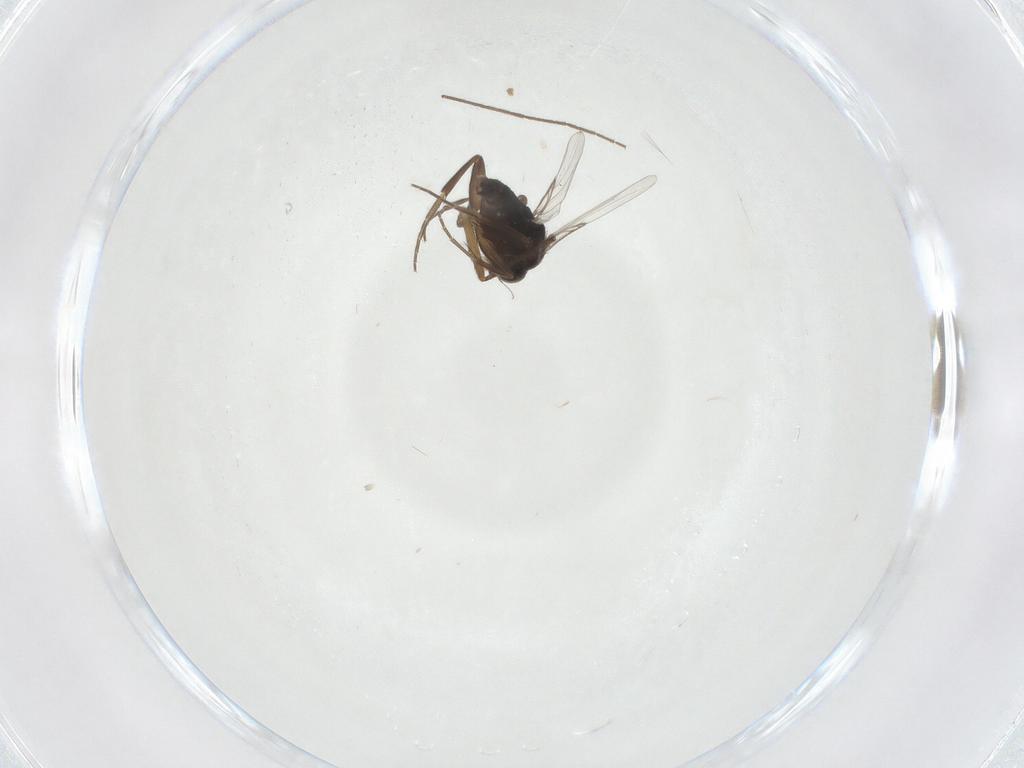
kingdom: Animalia
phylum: Arthropoda
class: Insecta
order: Diptera
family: Phoridae
